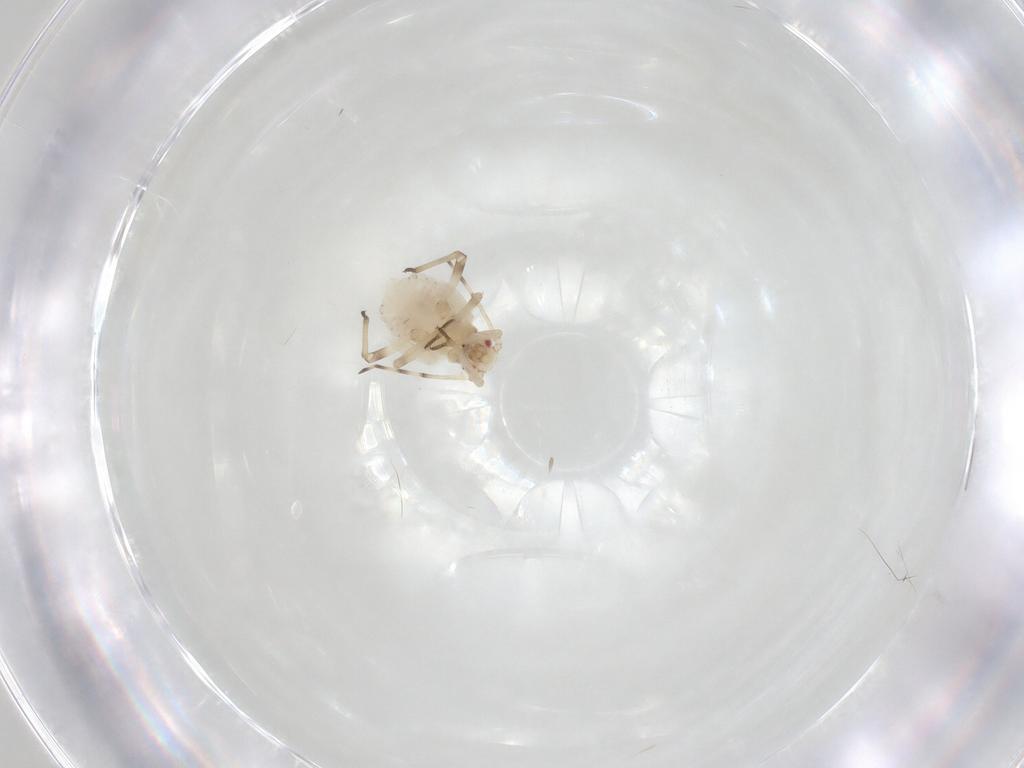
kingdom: Animalia
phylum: Arthropoda
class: Insecta
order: Hemiptera
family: Aphididae
